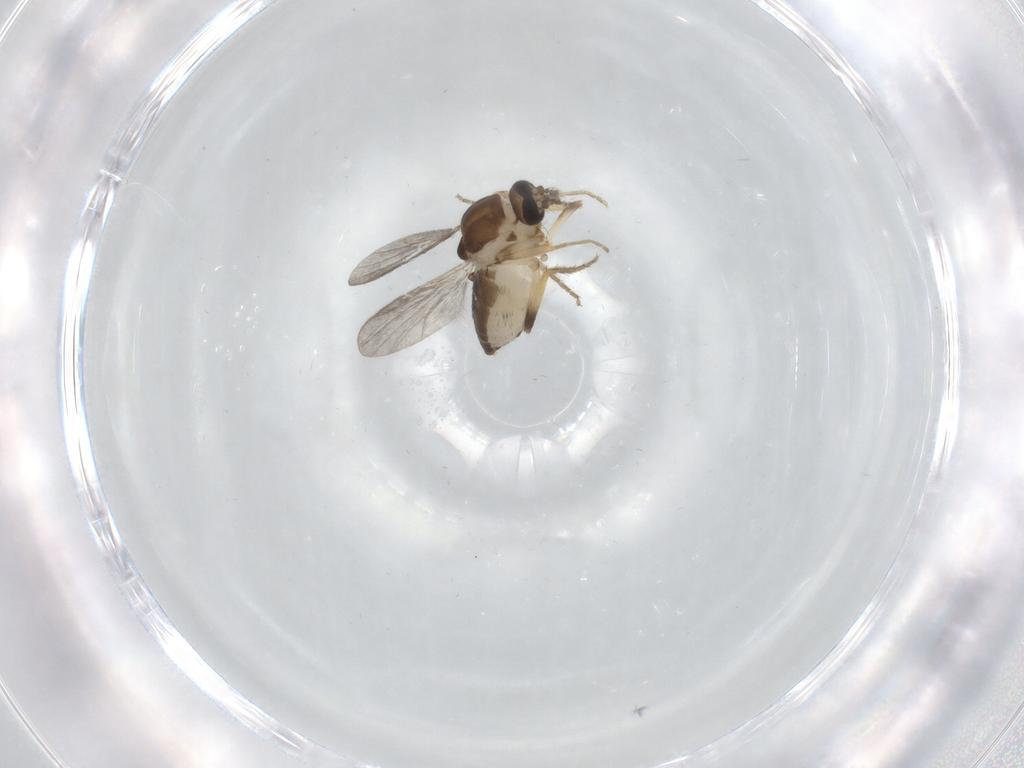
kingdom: Animalia
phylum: Arthropoda
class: Insecta
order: Diptera
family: Ceratopogonidae
